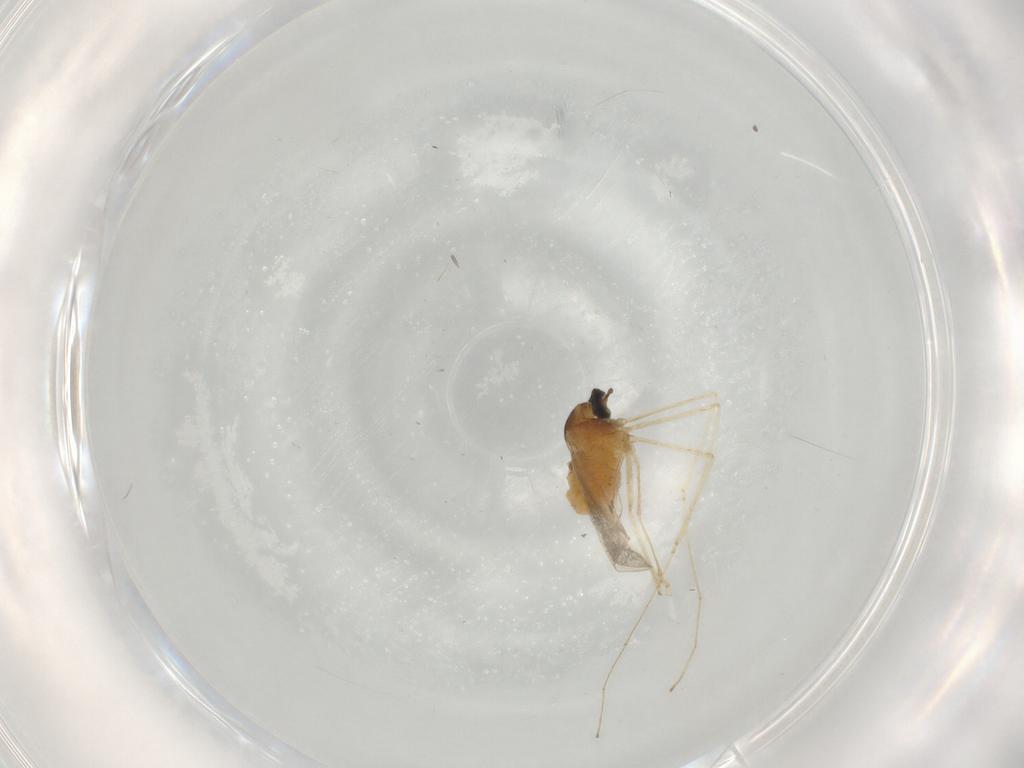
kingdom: Animalia
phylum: Arthropoda
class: Insecta
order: Diptera
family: Cecidomyiidae
